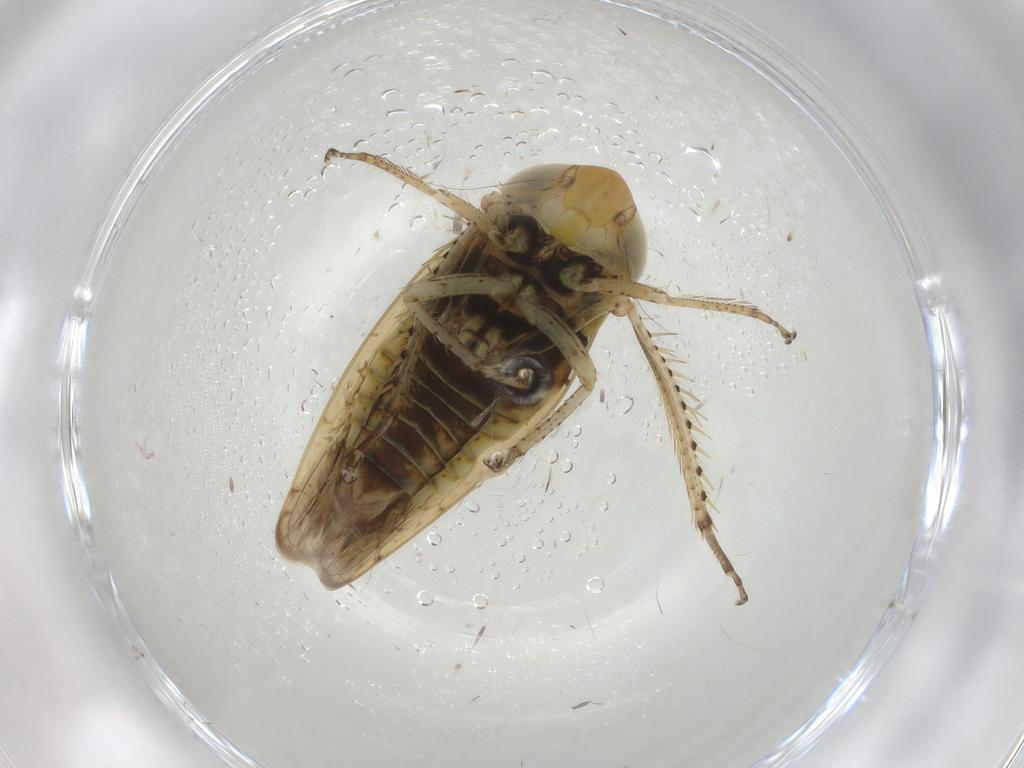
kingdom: Animalia
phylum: Arthropoda
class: Insecta
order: Hemiptera
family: Cicadellidae
